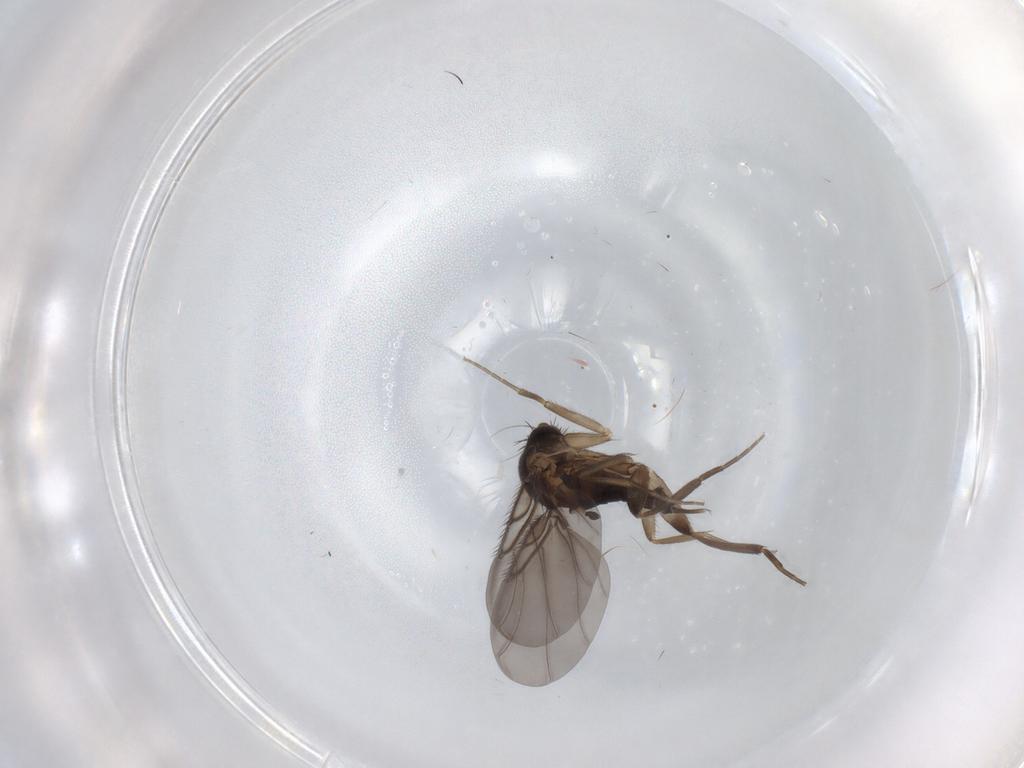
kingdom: Animalia
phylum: Arthropoda
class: Insecta
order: Diptera
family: Phoridae
